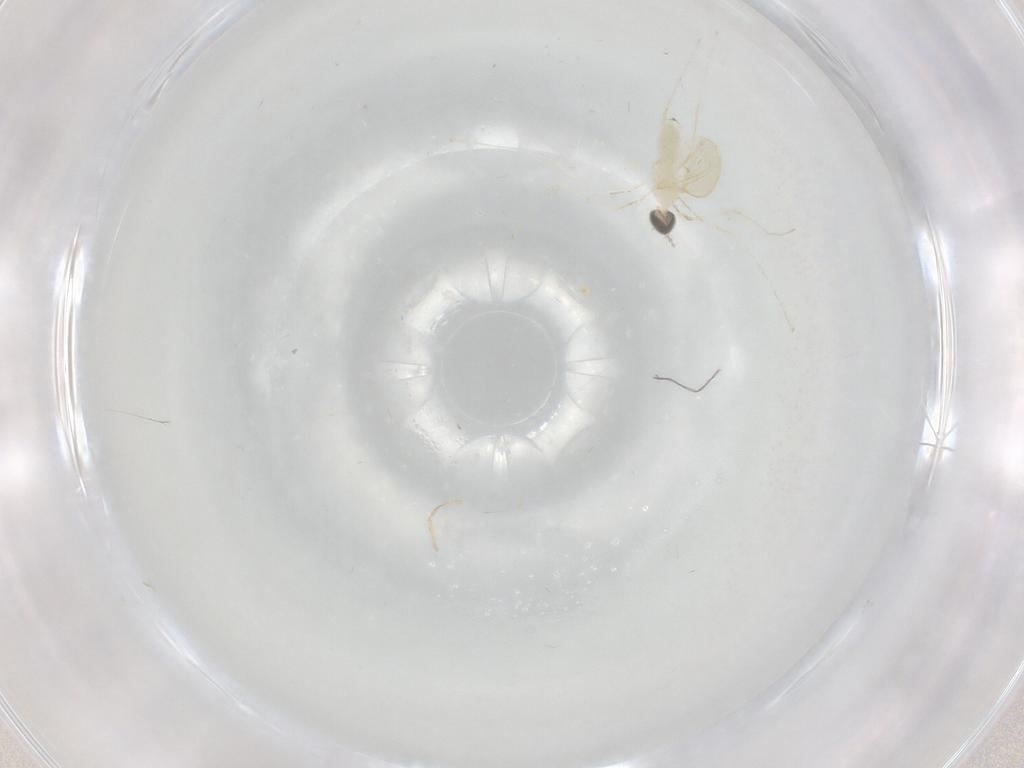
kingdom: Animalia
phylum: Arthropoda
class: Insecta
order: Diptera
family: Cecidomyiidae
